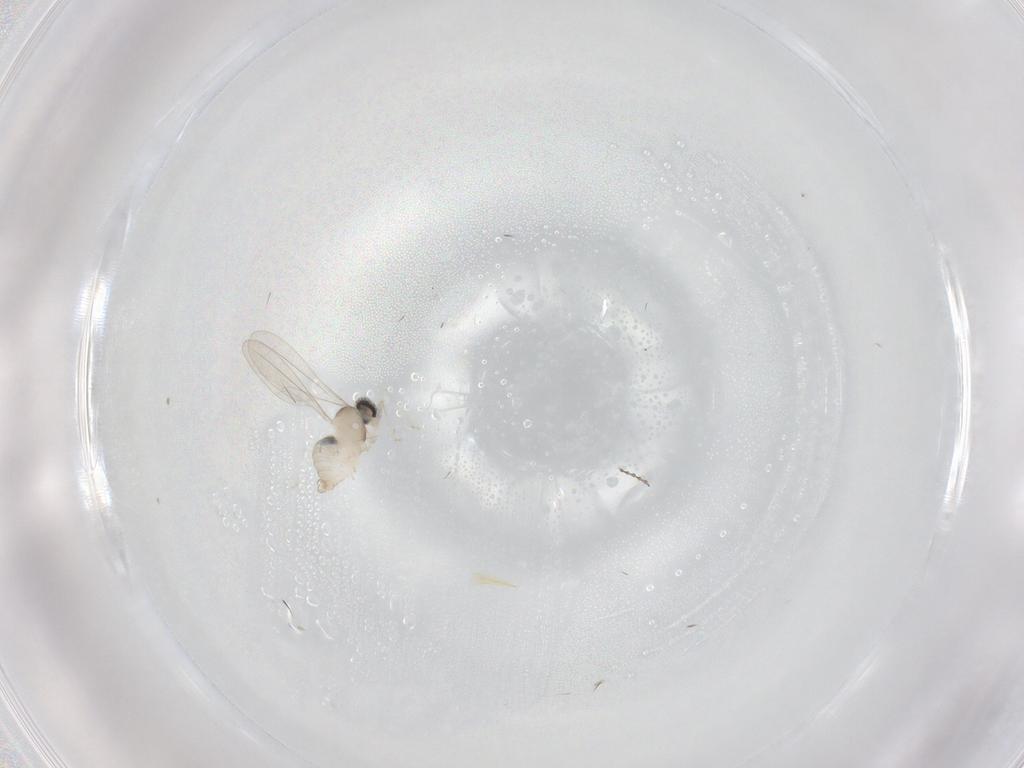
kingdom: Animalia
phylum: Arthropoda
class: Insecta
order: Diptera
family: Cecidomyiidae
